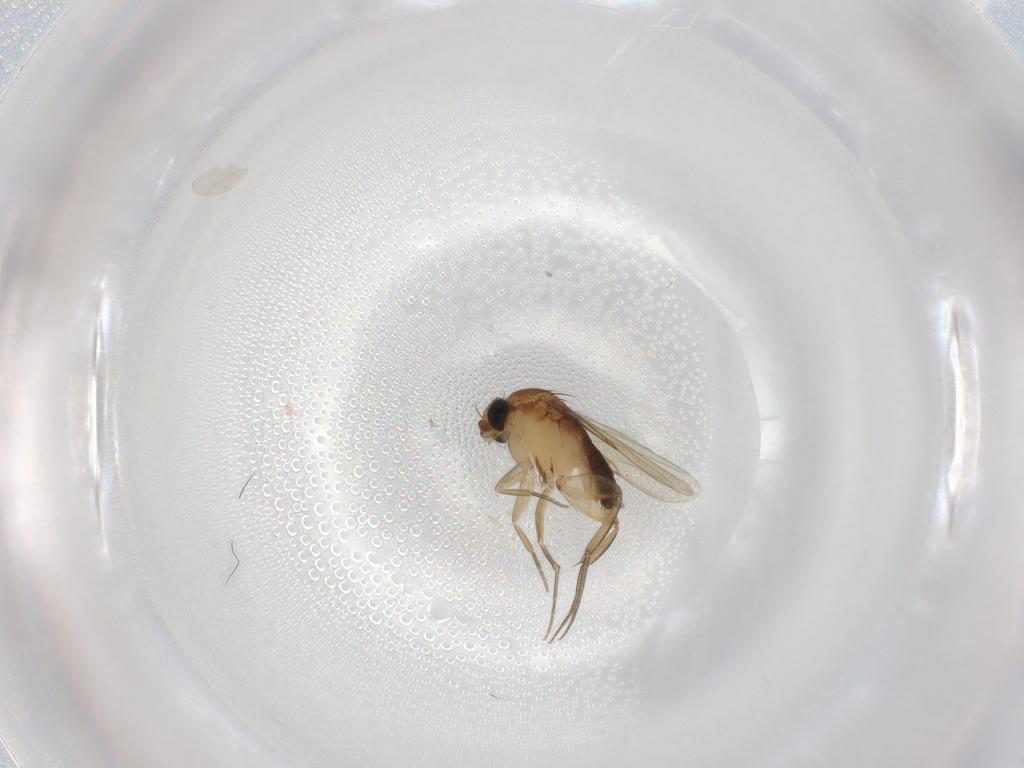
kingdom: Animalia
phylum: Arthropoda
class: Insecta
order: Diptera
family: Phoridae
